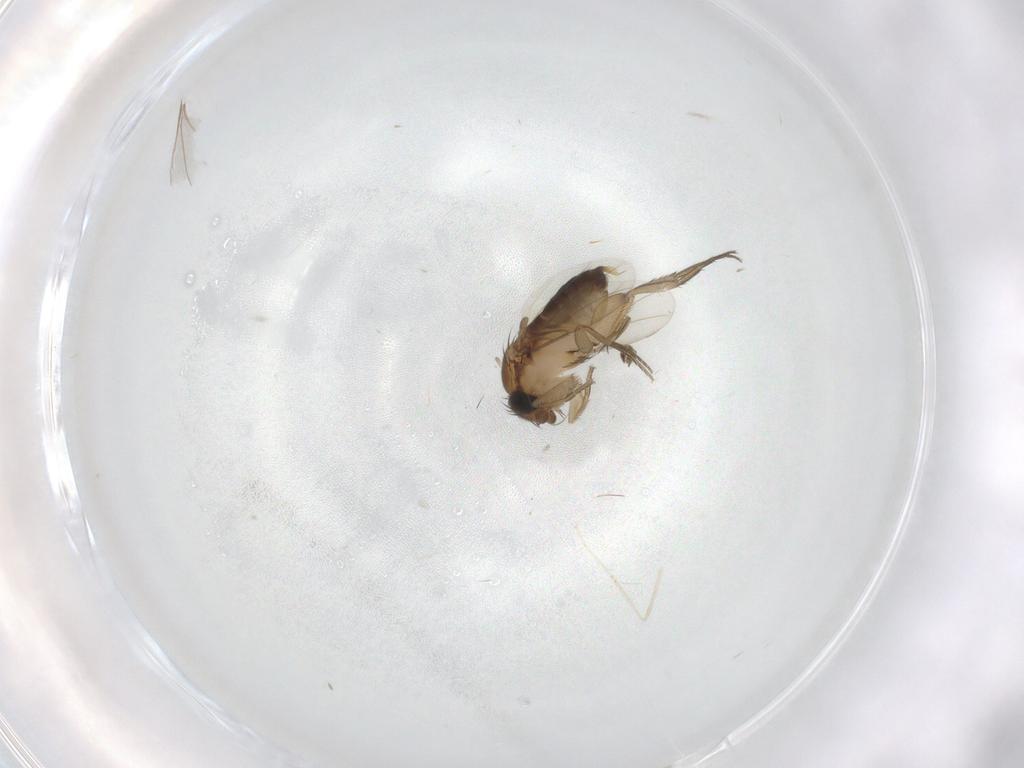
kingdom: Animalia
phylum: Arthropoda
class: Insecta
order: Diptera
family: Phoridae
